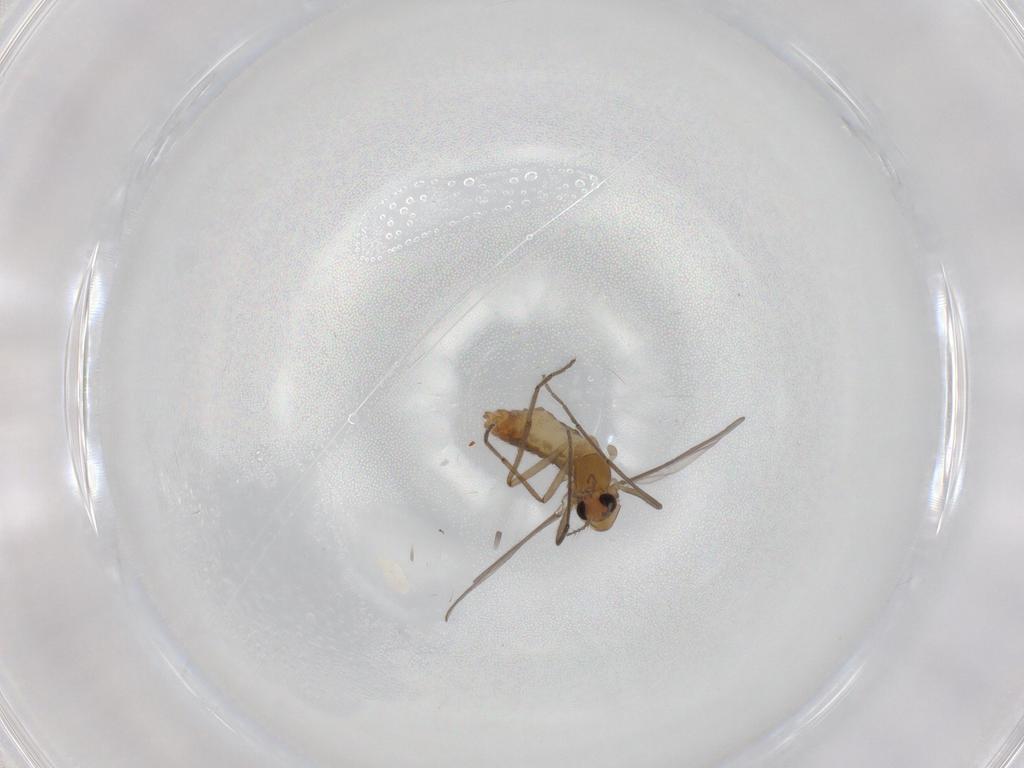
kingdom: Animalia
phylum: Arthropoda
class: Insecta
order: Diptera
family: Chironomidae
